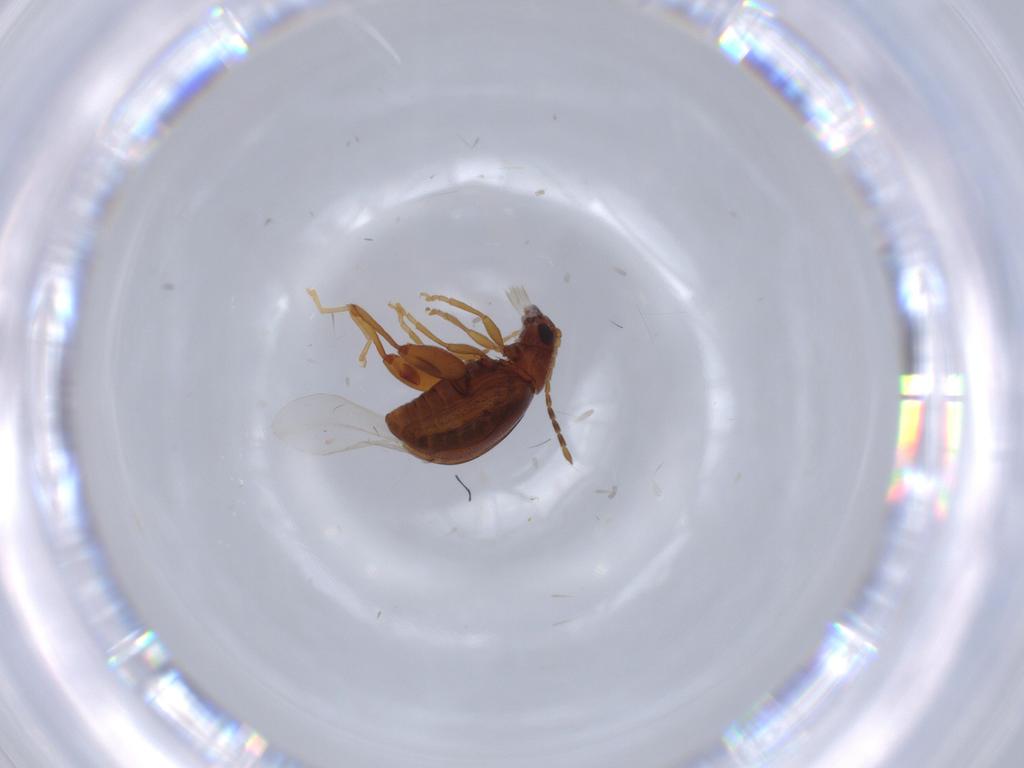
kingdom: Animalia
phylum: Arthropoda
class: Insecta
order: Coleoptera
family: Chrysomelidae
